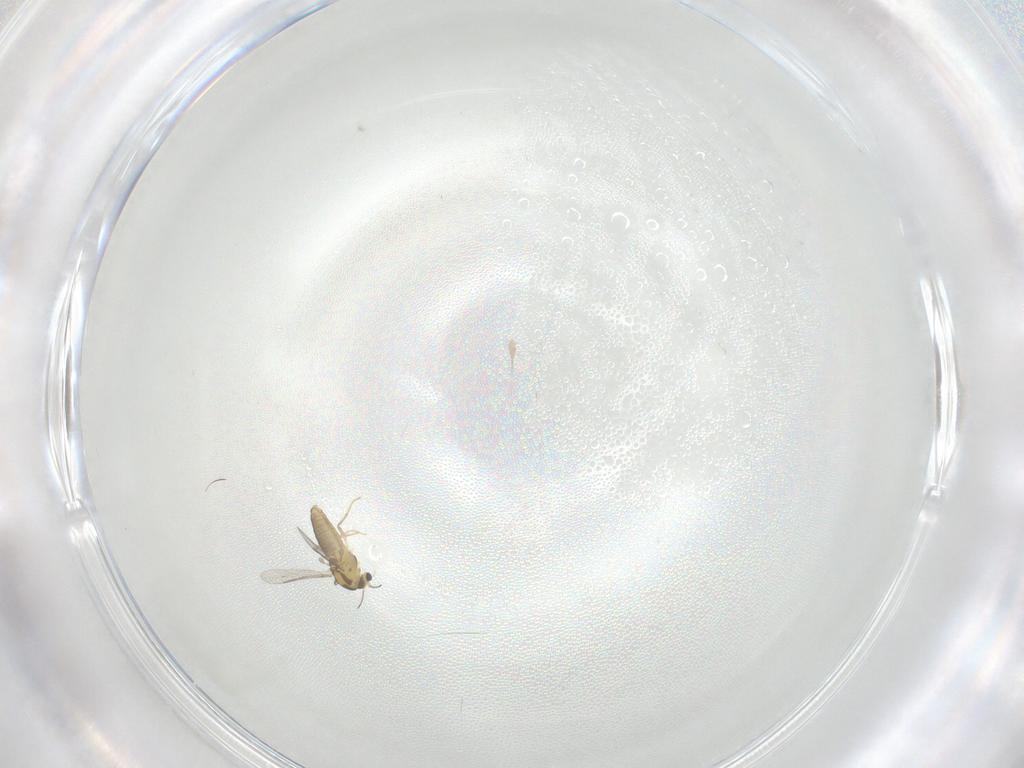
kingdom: Animalia
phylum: Arthropoda
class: Insecta
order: Diptera
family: Chironomidae
